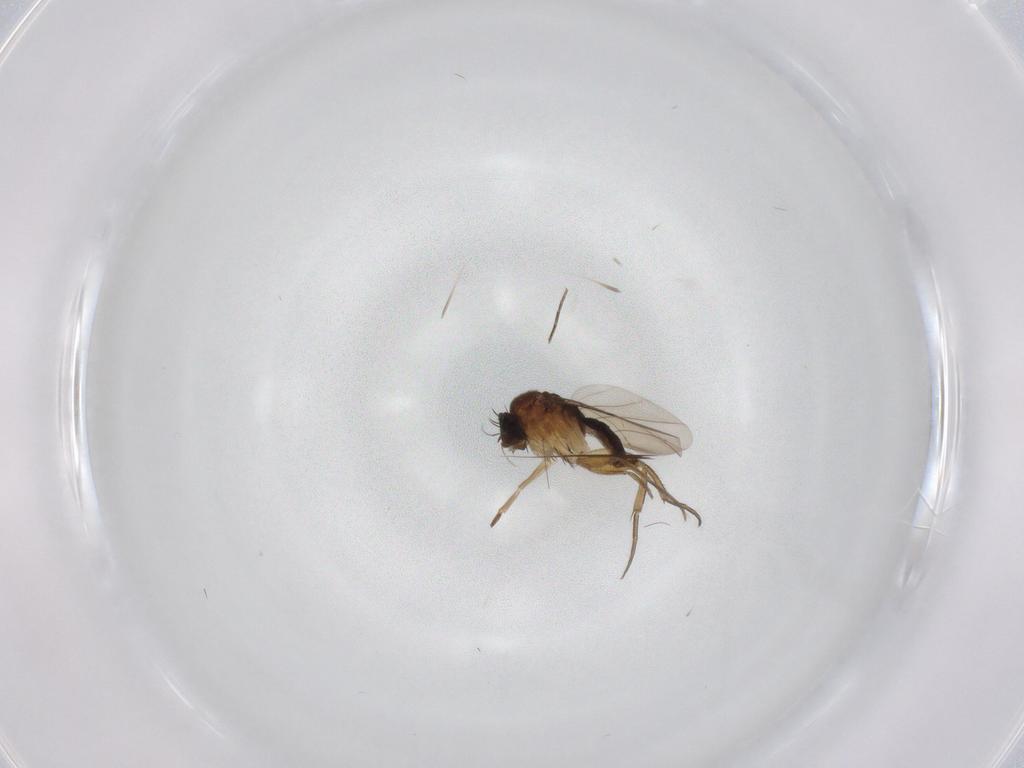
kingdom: Animalia
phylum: Arthropoda
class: Insecta
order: Diptera
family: Phoridae
